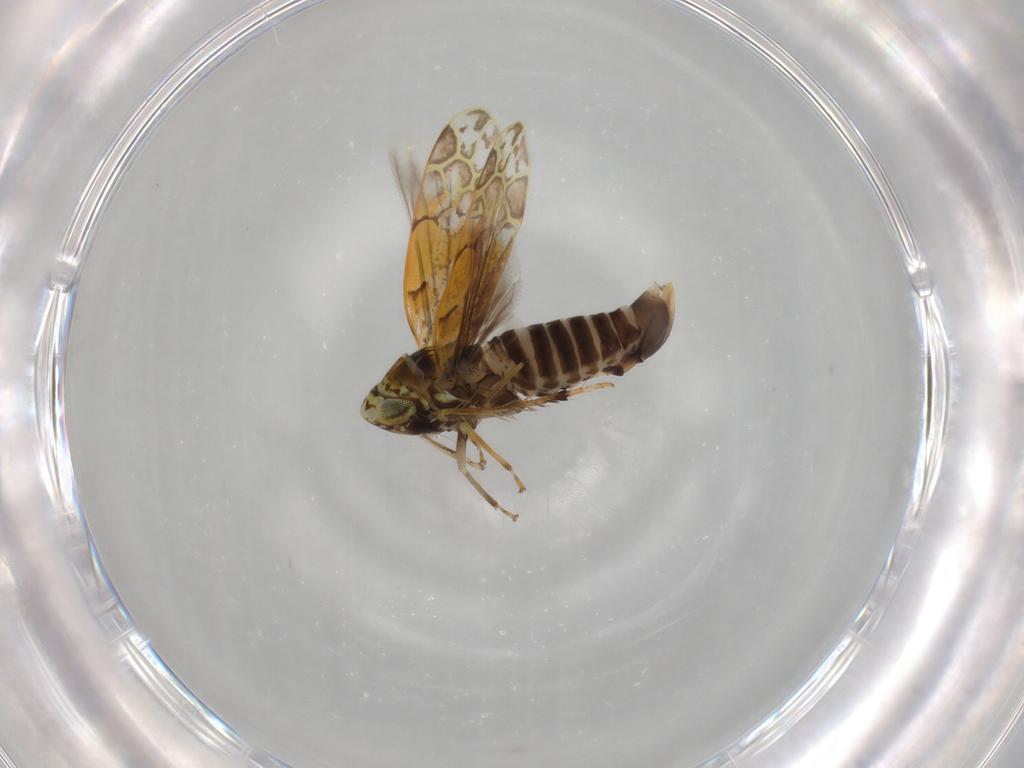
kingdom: Animalia
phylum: Arthropoda
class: Insecta
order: Hemiptera
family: Cicadellidae
